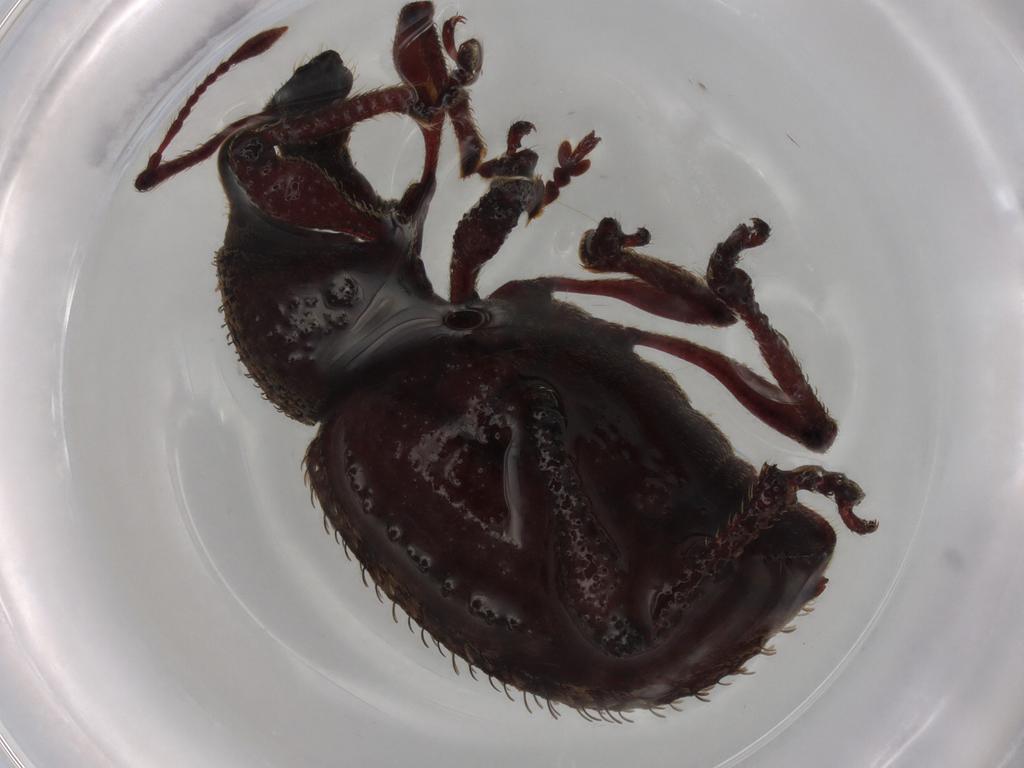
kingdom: Animalia
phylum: Arthropoda
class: Insecta
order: Coleoptera
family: Curculionidae
